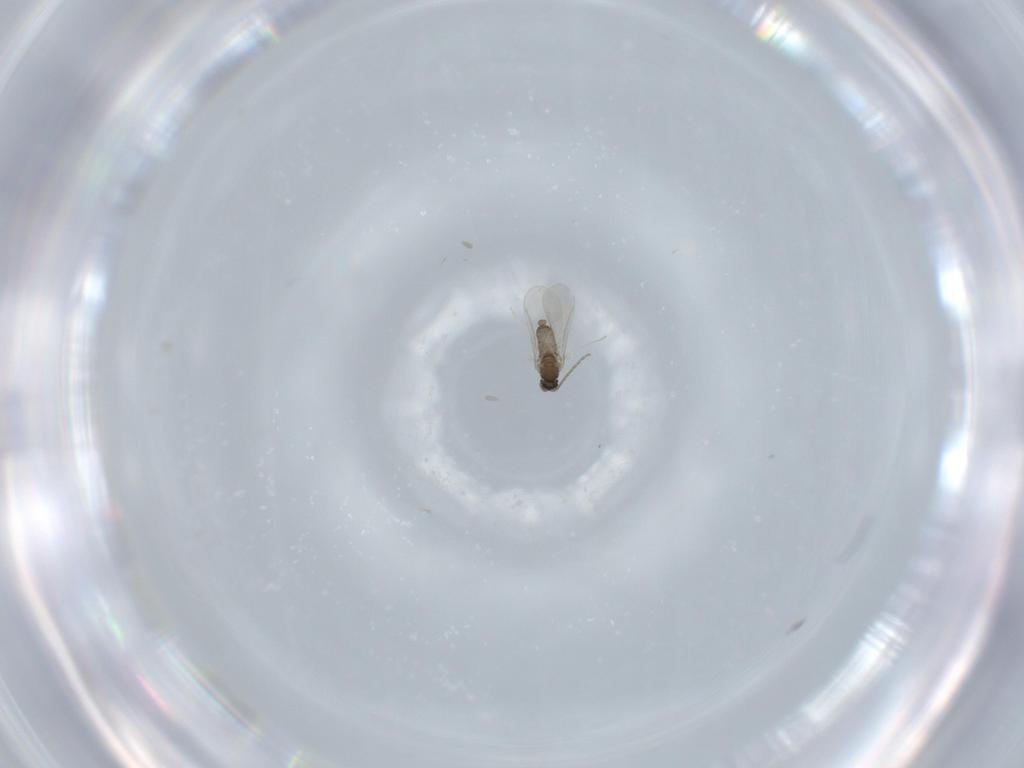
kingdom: Animalia
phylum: Arthropoda
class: Insecta
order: Diptera
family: Cecidomyiidae
